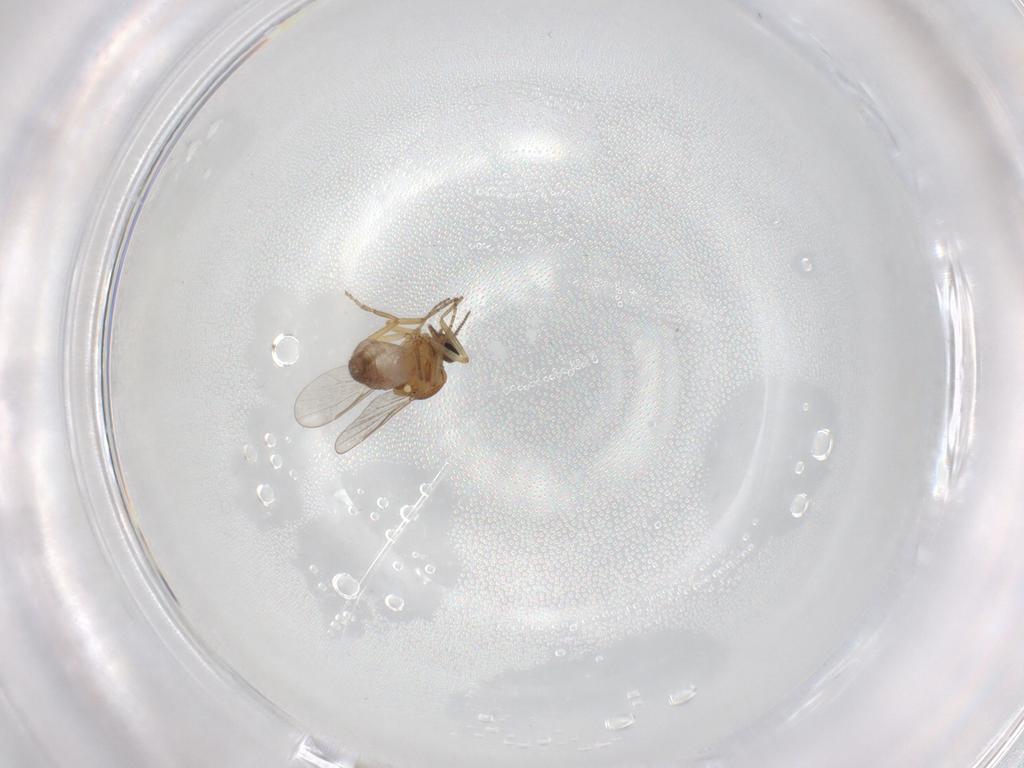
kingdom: Animalia
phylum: Arthropoda
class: Insecta
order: Diptera
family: Ceratopogonidae
